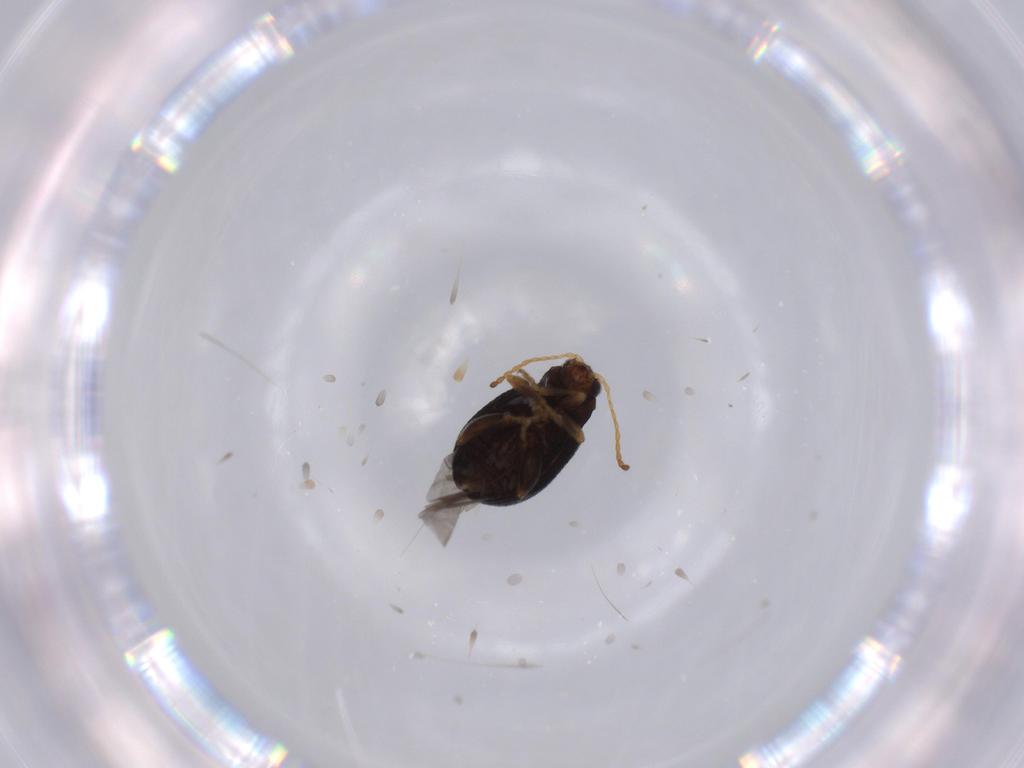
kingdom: Animalia
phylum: Arthropoda
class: Insecta
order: Coleoptera
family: Chrysomelidae
